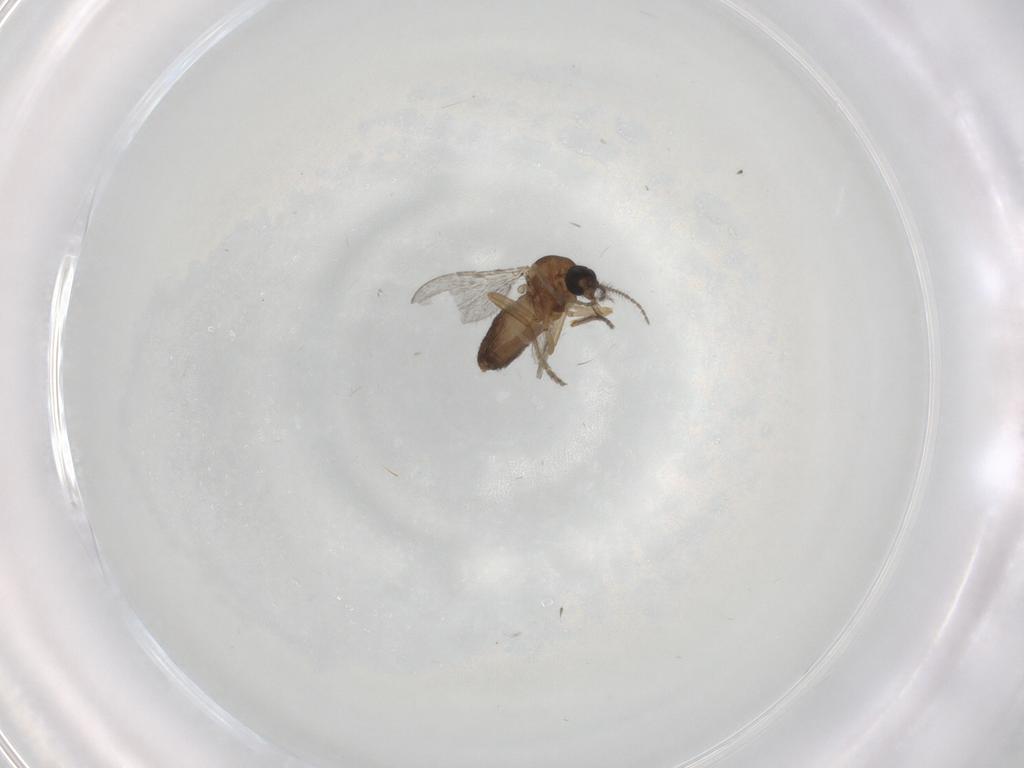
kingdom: Animalia
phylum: Arthropoda
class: Insecta
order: Diptera
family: Ceratopogonidae
